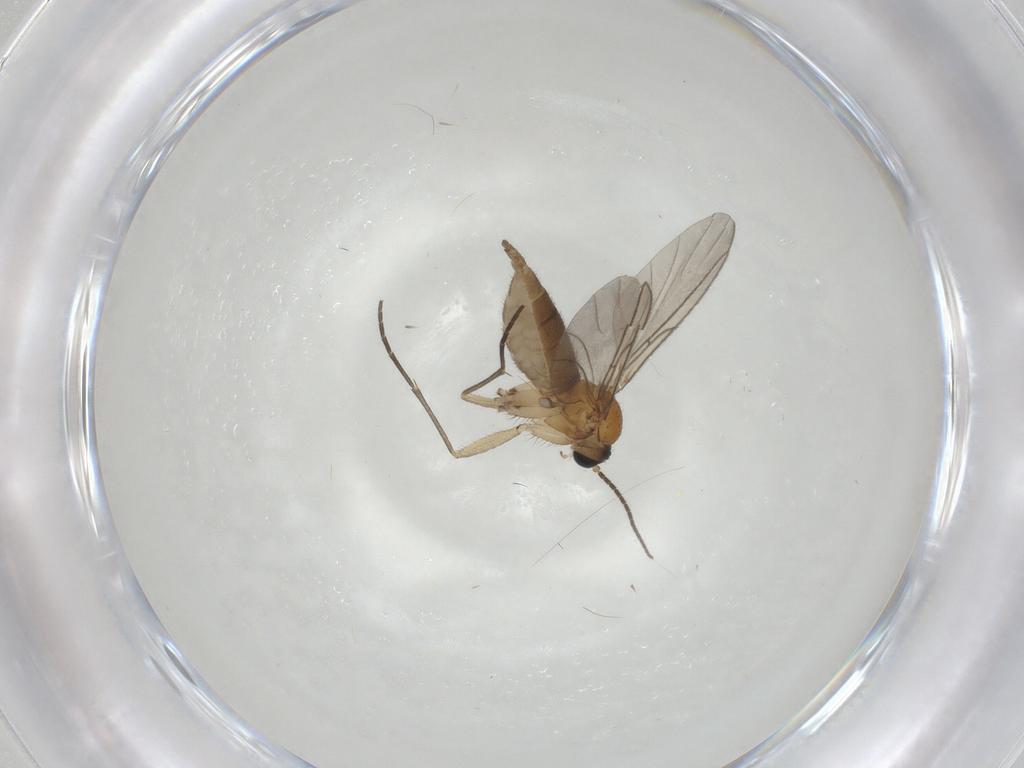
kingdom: Animalia
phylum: Arthropoda
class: Insecta
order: Diptera
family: Sciaridae
